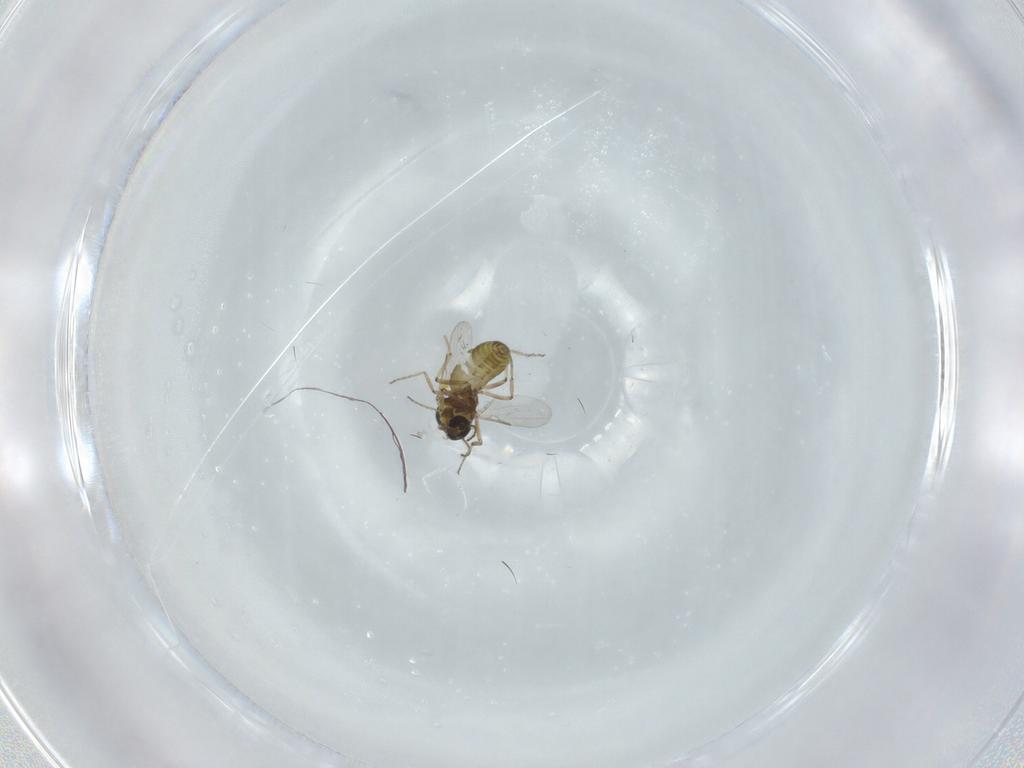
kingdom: Animalia
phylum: Arthropoda
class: Insecta
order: Diptera
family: Ceratopogonidae
